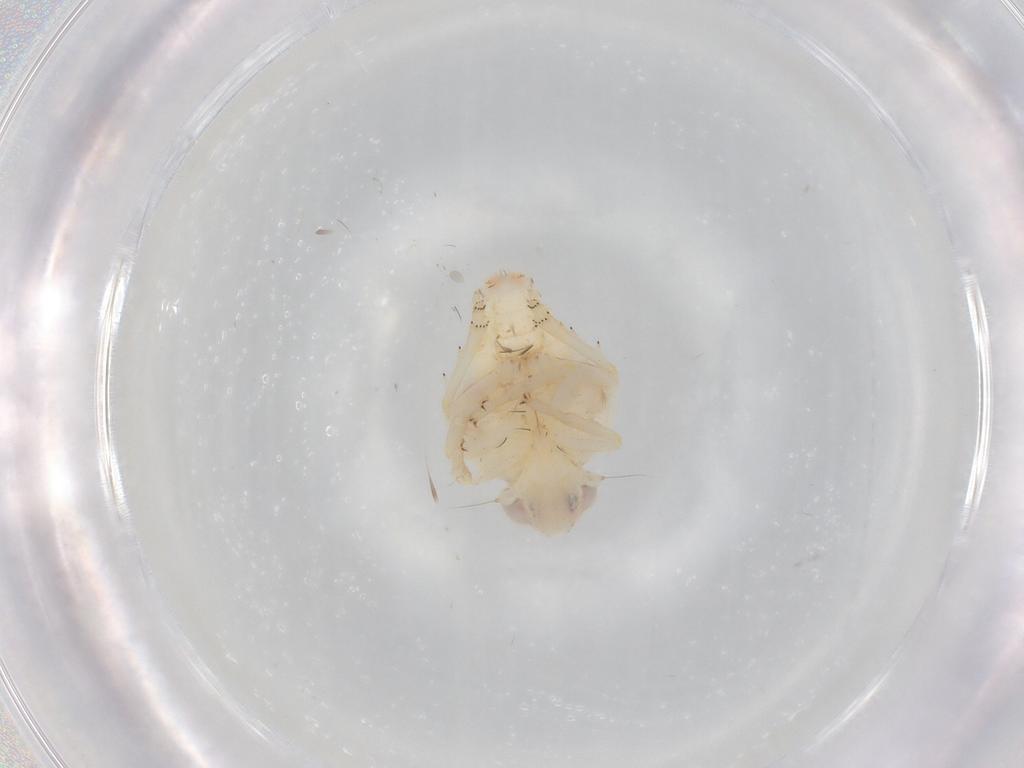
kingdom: Animalia
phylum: Arthropoda
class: Insecta
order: Hemiptera
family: Nogodinidae
